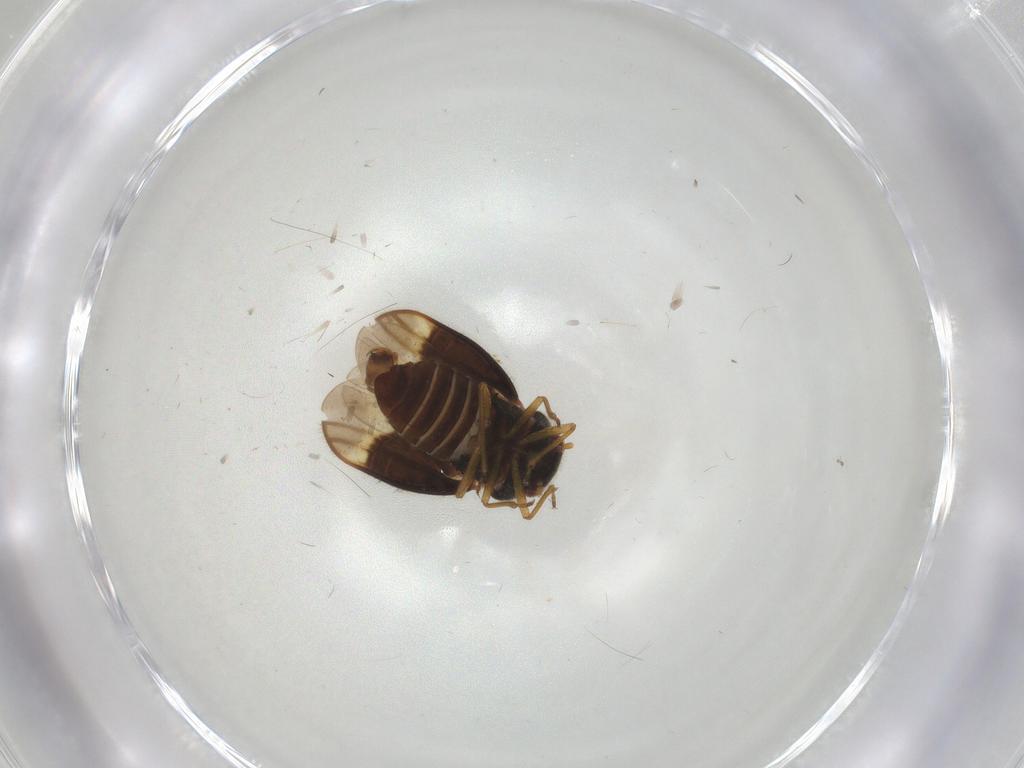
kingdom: Animalia
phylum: Arthropoda
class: Insecta
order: Hemiptera
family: Schizopteridae
